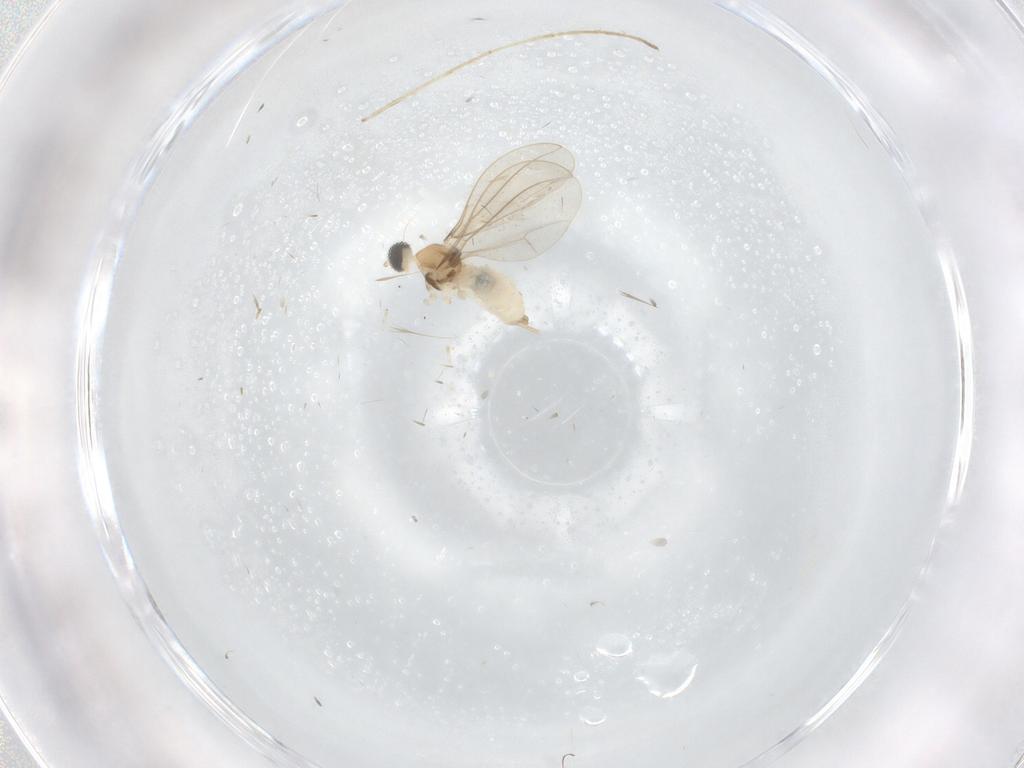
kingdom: Animalia
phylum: Arthropoda
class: Insecta
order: Diptera
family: Cecidomyiidae
